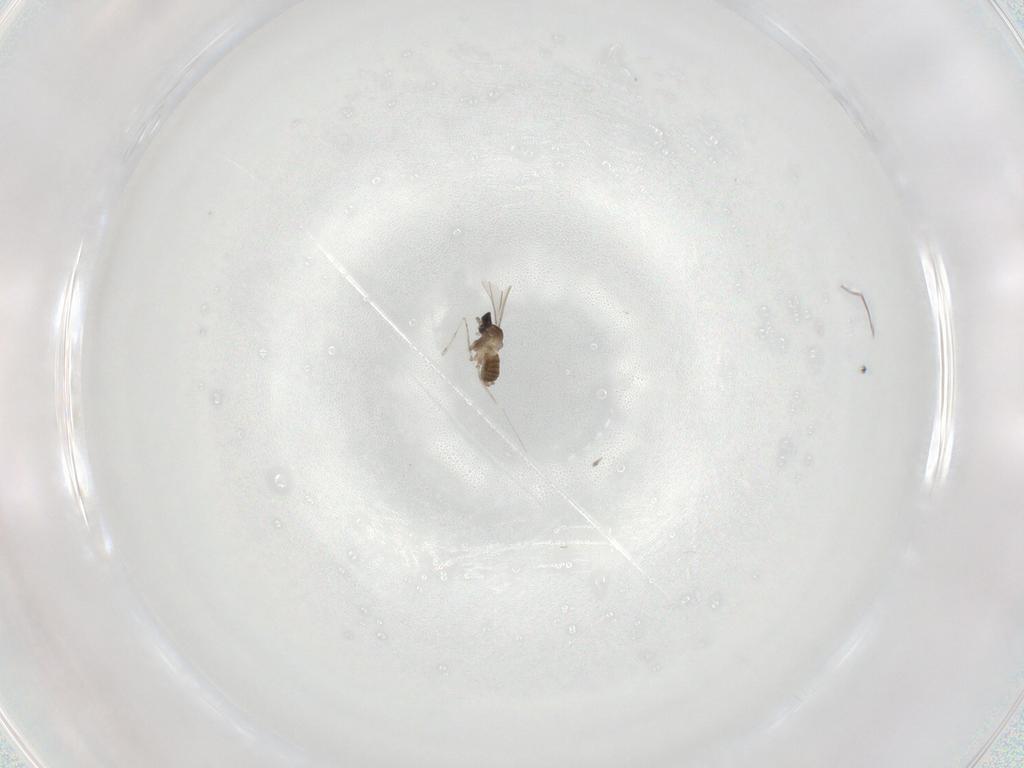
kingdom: Animalia
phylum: Arthropoda
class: Insecta
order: Diptera
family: Cecidomyiidae
